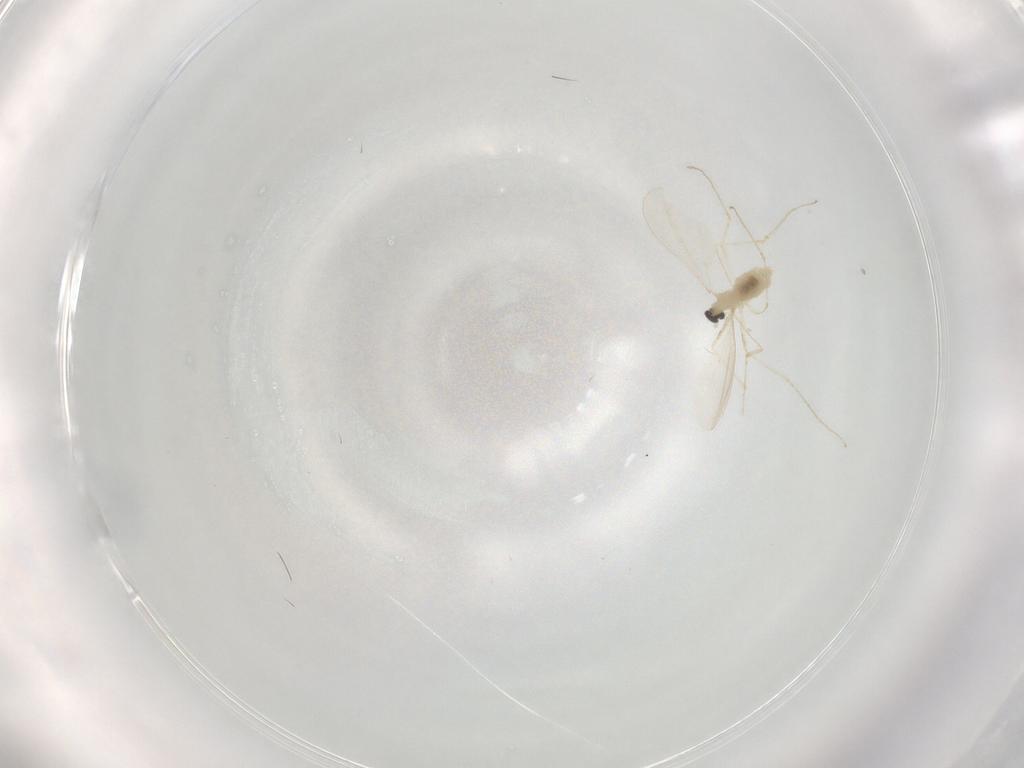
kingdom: Animalia
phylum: Arthropoda
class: Insecta
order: Diptera
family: Cecidomyiidae
